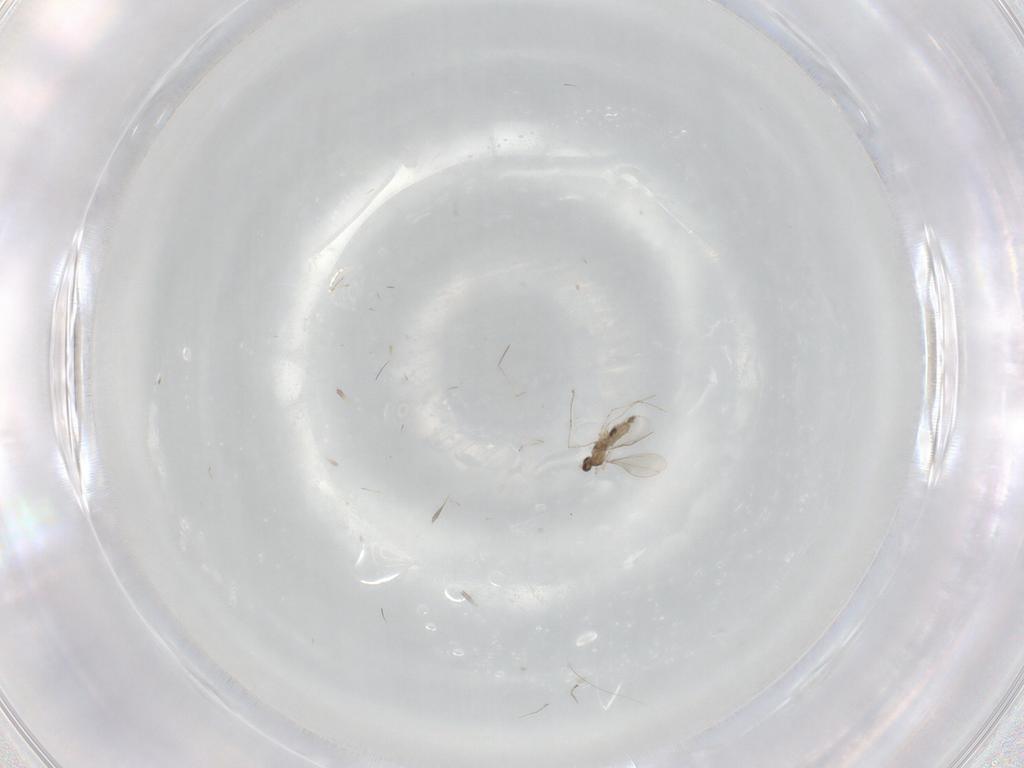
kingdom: Animalia
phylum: Arthropoda
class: Insecta
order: Diptera
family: Cecidomyiidae
